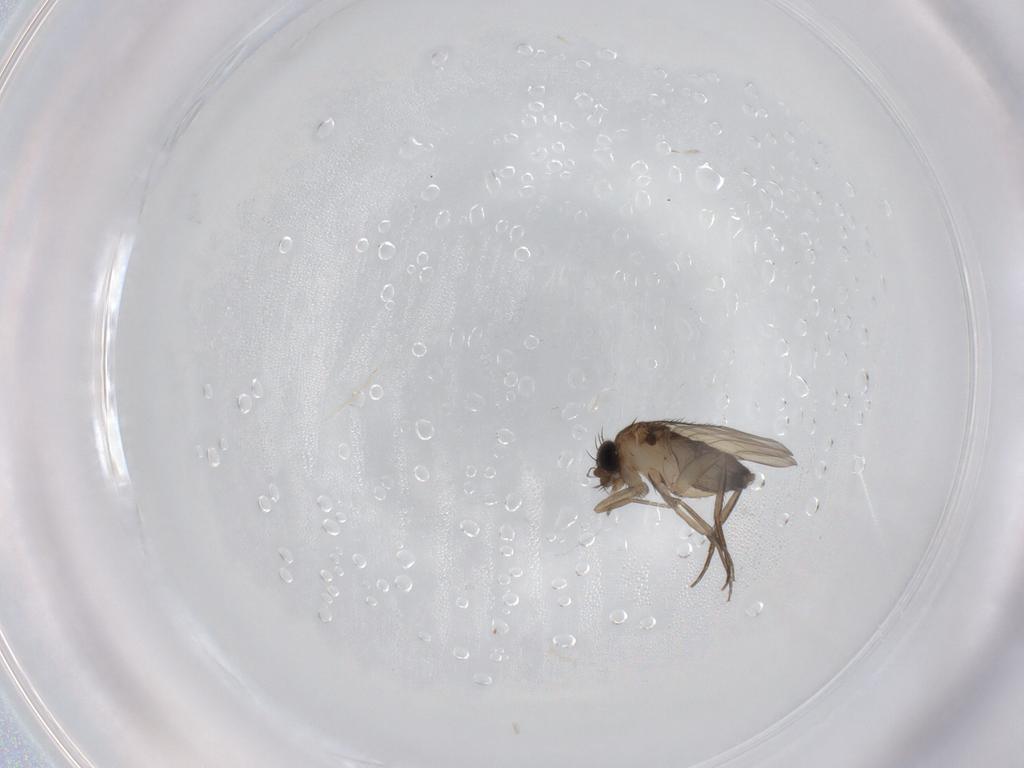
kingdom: Animalia
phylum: Arthropoda
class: Insecta
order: Diptera
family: Phoridae
